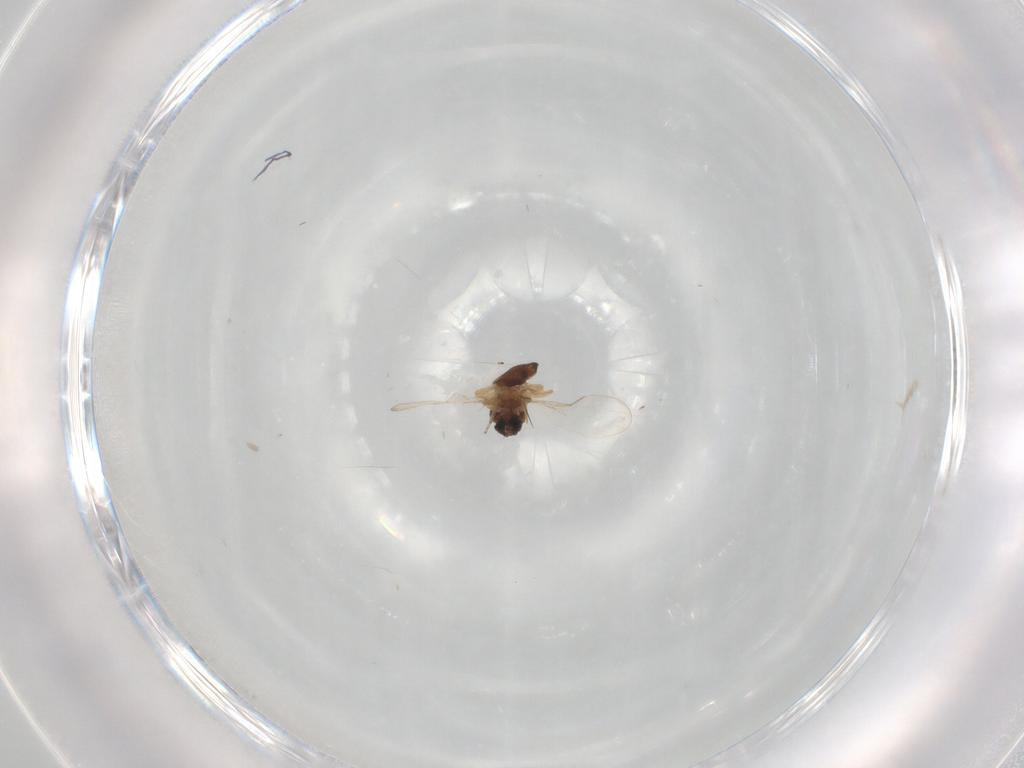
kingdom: Animalia
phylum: Arthropoda
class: Insecta
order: Diptera
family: Ceratopogonidae
